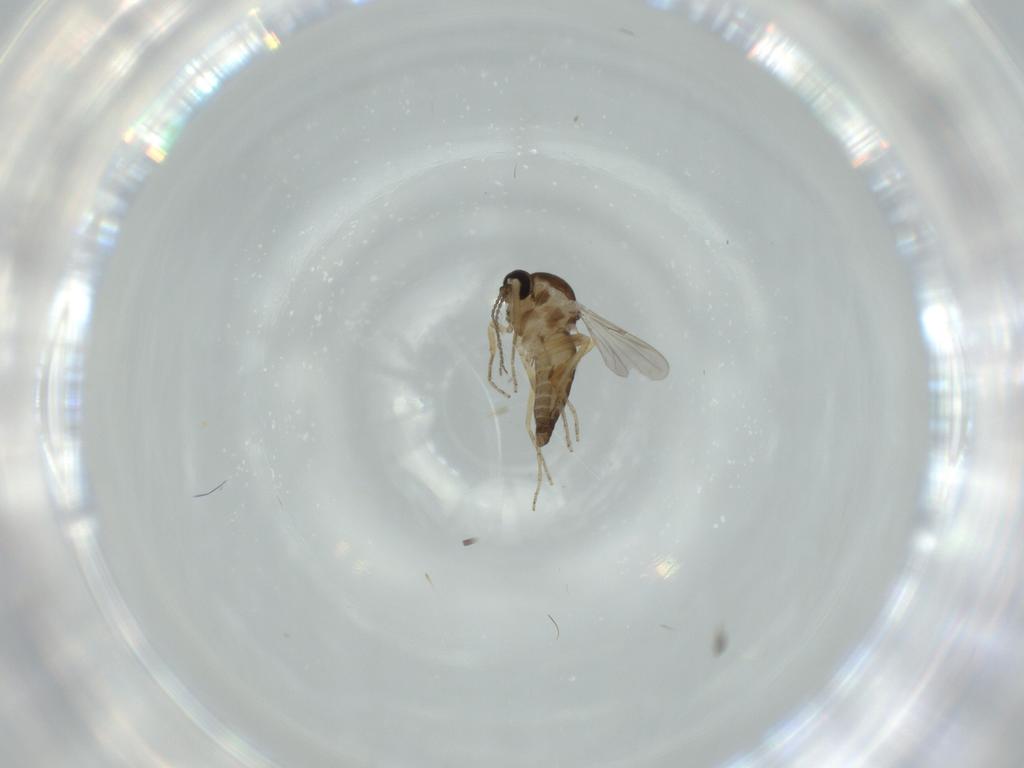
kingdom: Animalia
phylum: Arthropoda
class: Insecta
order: Diptera
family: Ceratopogonidae
